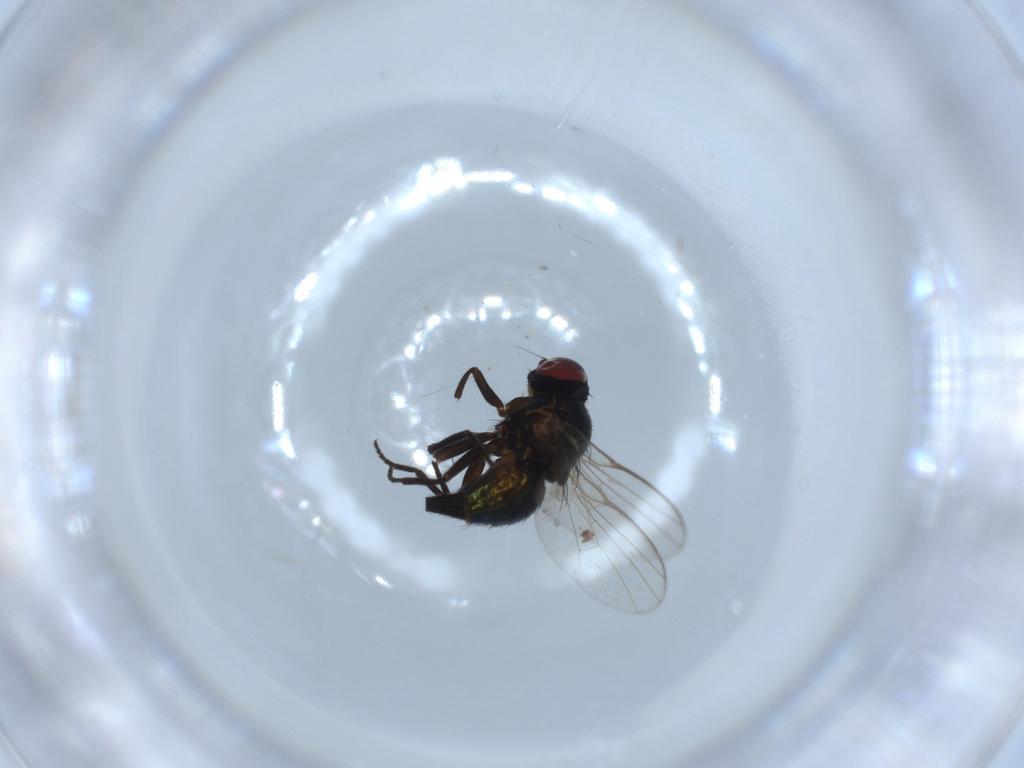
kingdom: Animalia
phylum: Arthropoda
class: Insecta
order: Diptera
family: Agromyzidae
